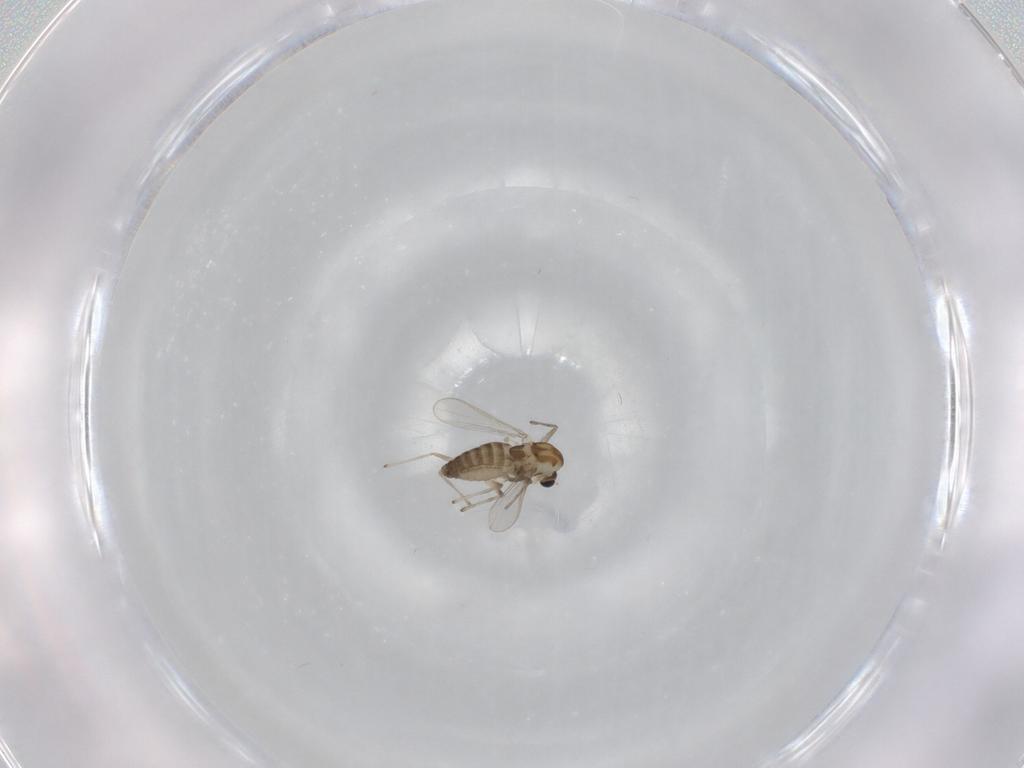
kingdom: Animalia
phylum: Arthropoda
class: Insecta
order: Diptera
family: Chironomidae
